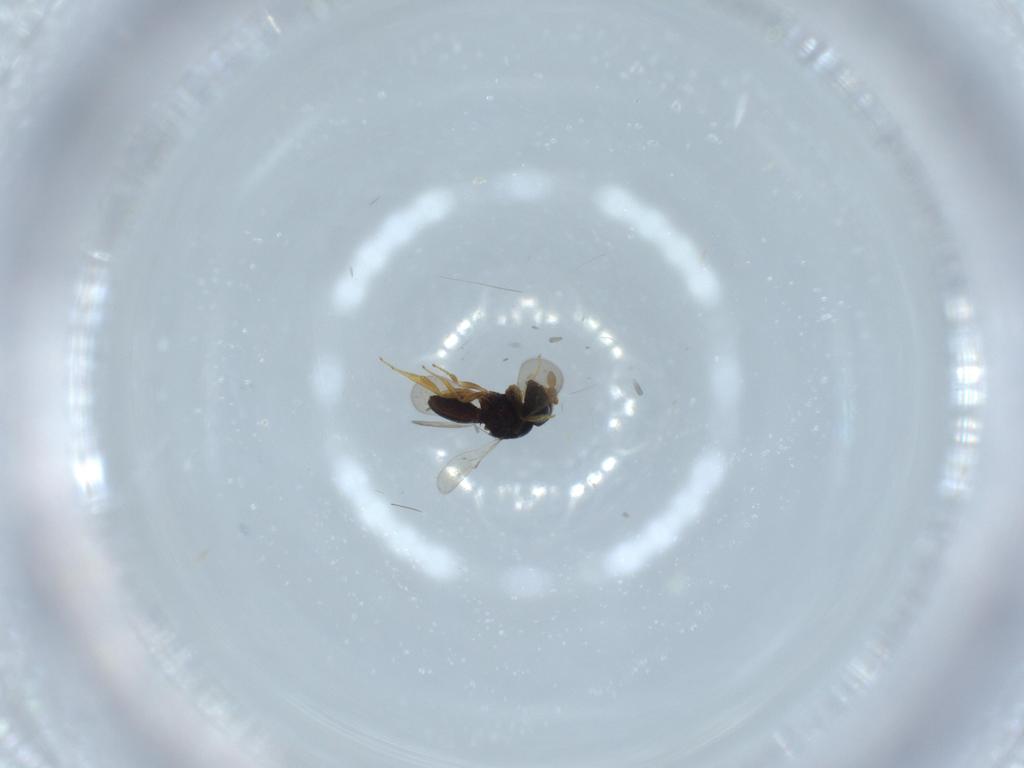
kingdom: Animalia
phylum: Arthropoda
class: Insecta
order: Hymenoptera
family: Scelionidae
